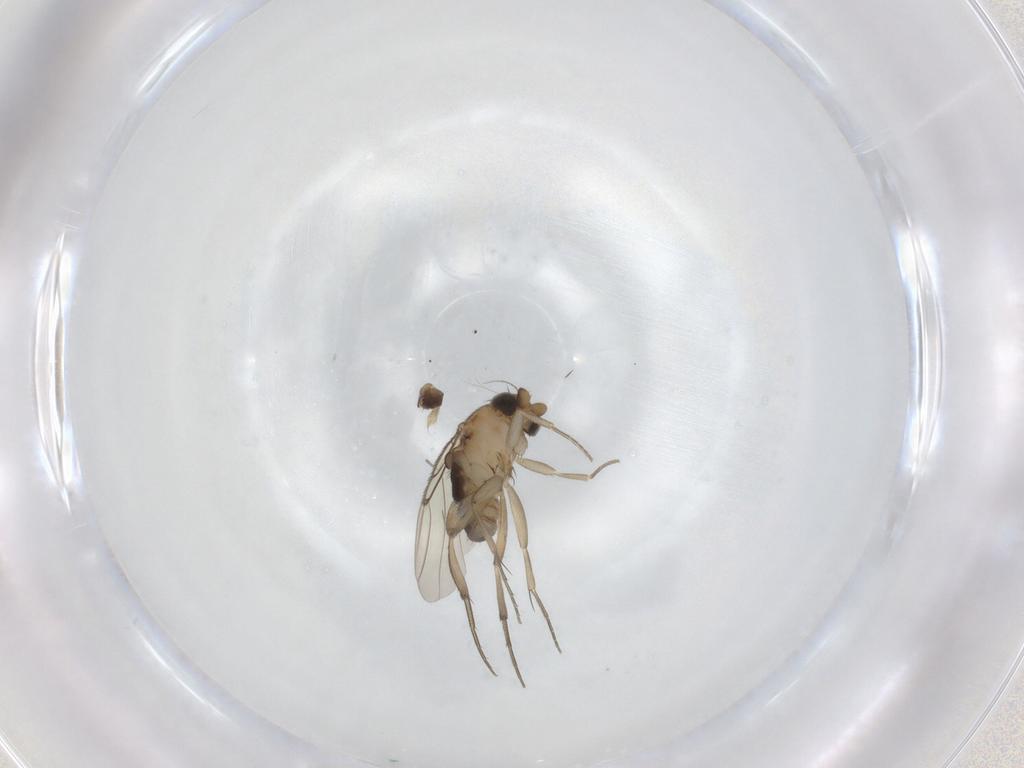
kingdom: Animalia
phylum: Arthropoda
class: Insecta
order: Diptera
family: Phoridae
